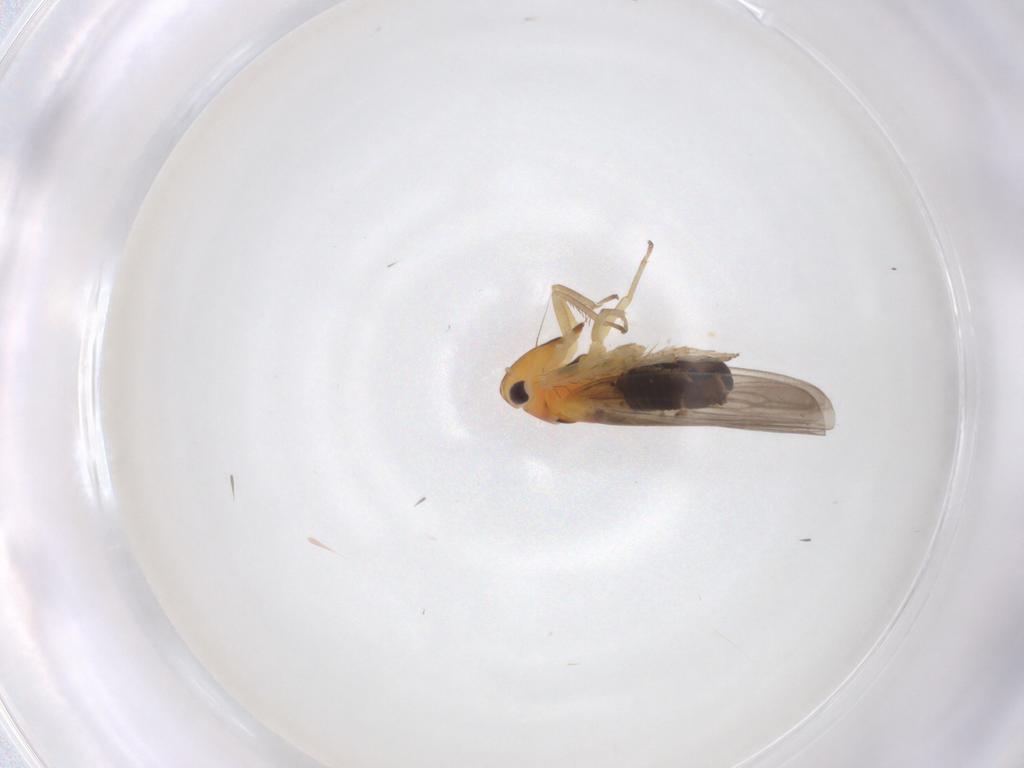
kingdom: Animalia
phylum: Arthropoda
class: Insecta
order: Hemiptera
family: Cicadellidae
